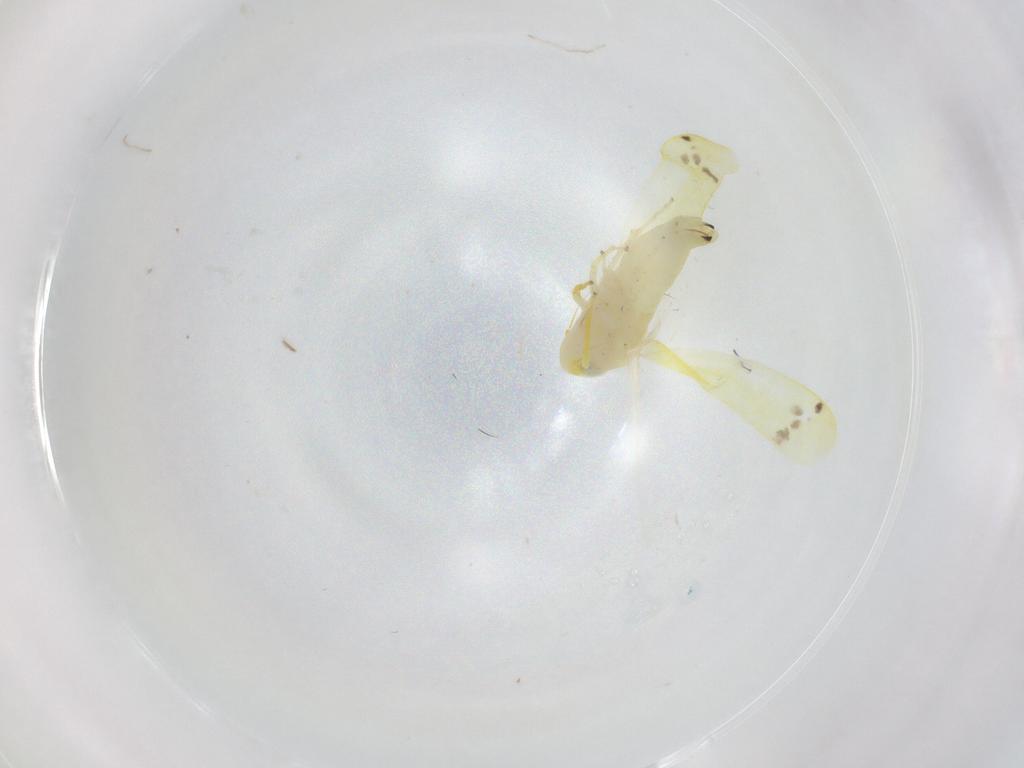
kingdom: Animalia
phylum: Arthropoda
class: Insecta
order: Hemiptera
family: Cicadellidae
